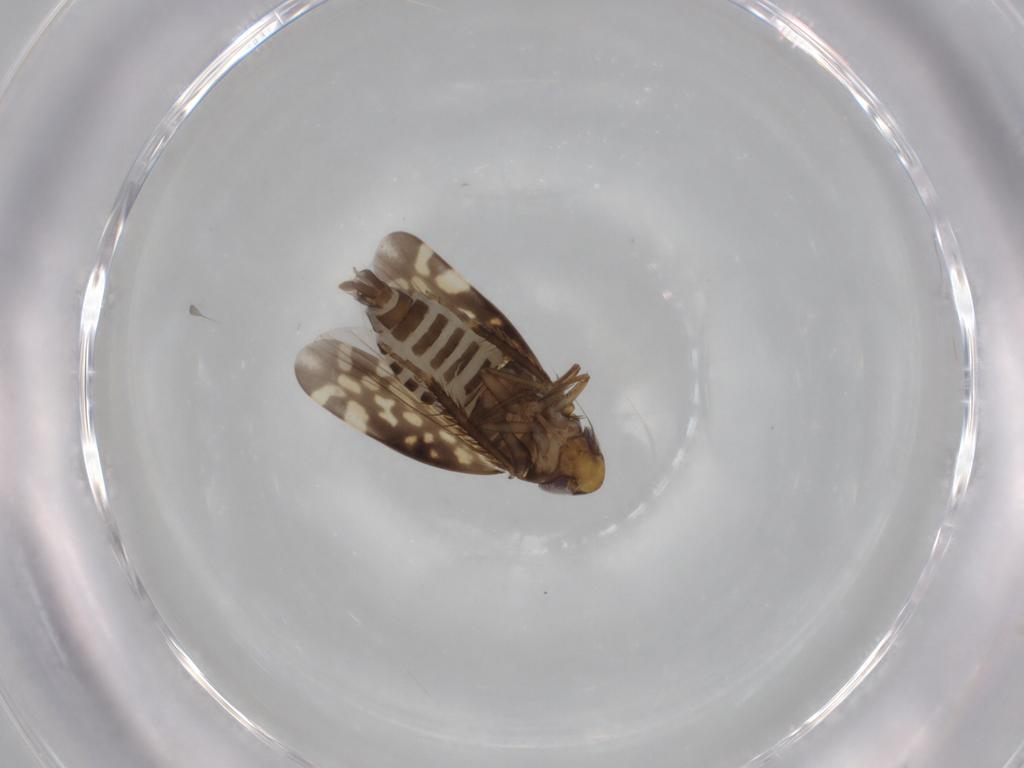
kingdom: Animalia
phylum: Arthropoda
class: Insecta
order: Hemiptera
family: Cicadellidae
